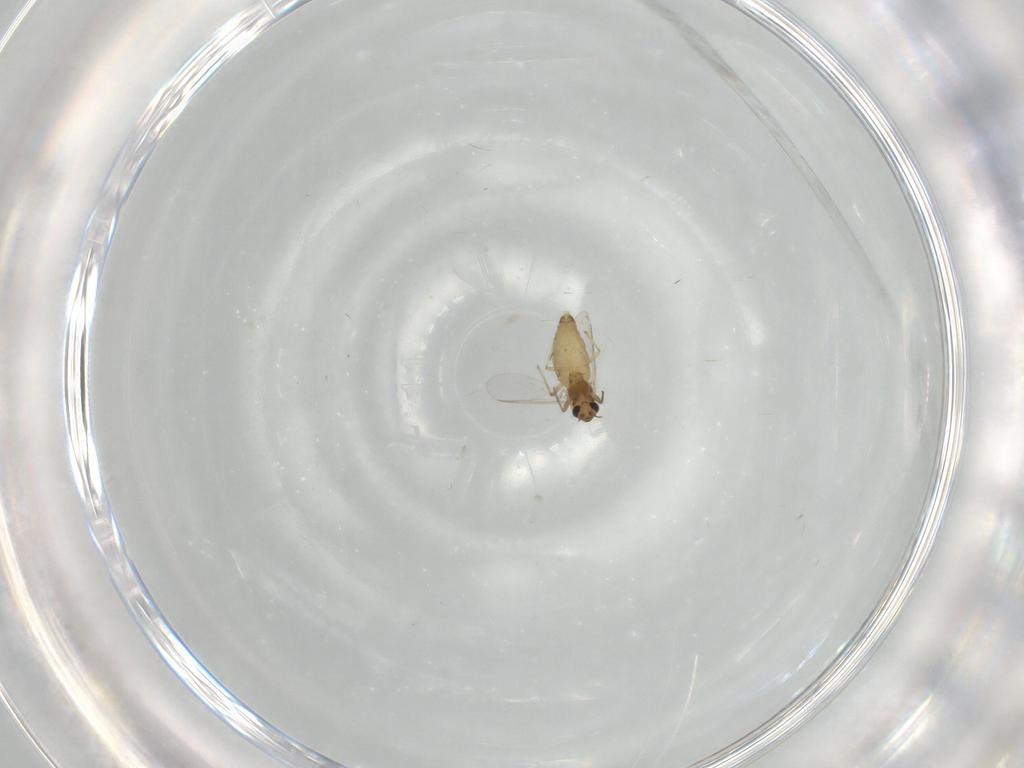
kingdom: Animalia
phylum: Arthropoda
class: Insecta
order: Diptera
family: Chironomidae
